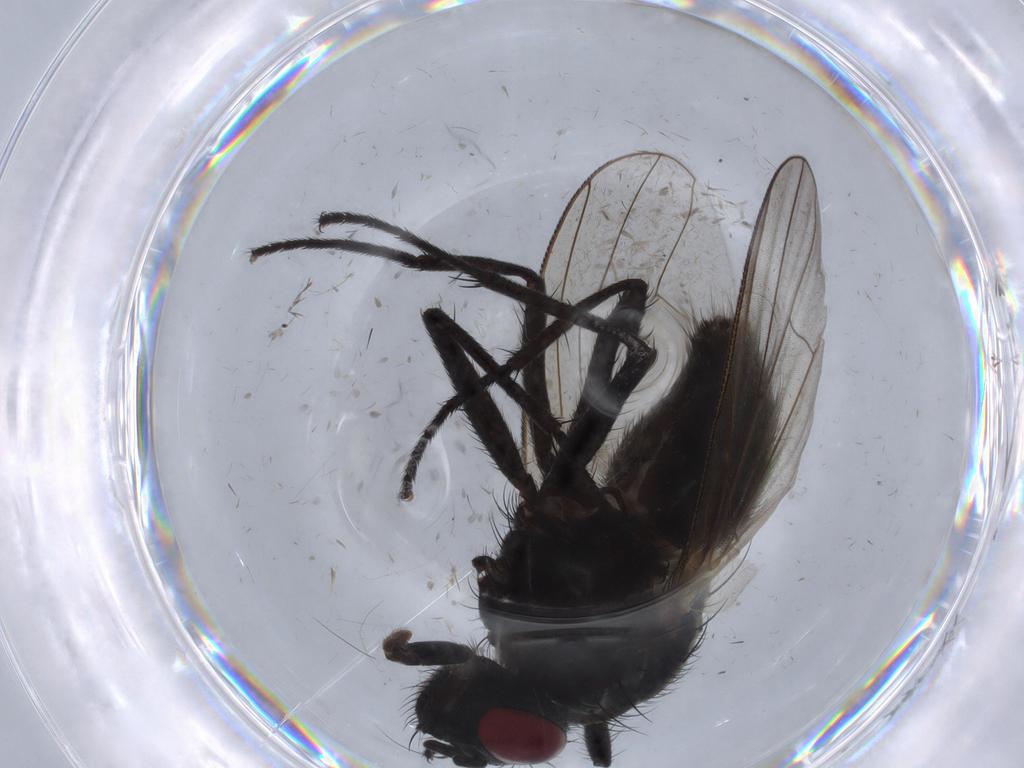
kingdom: Animalia
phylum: Arthropoda
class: Insecta
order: Diptera
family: Muscidae
